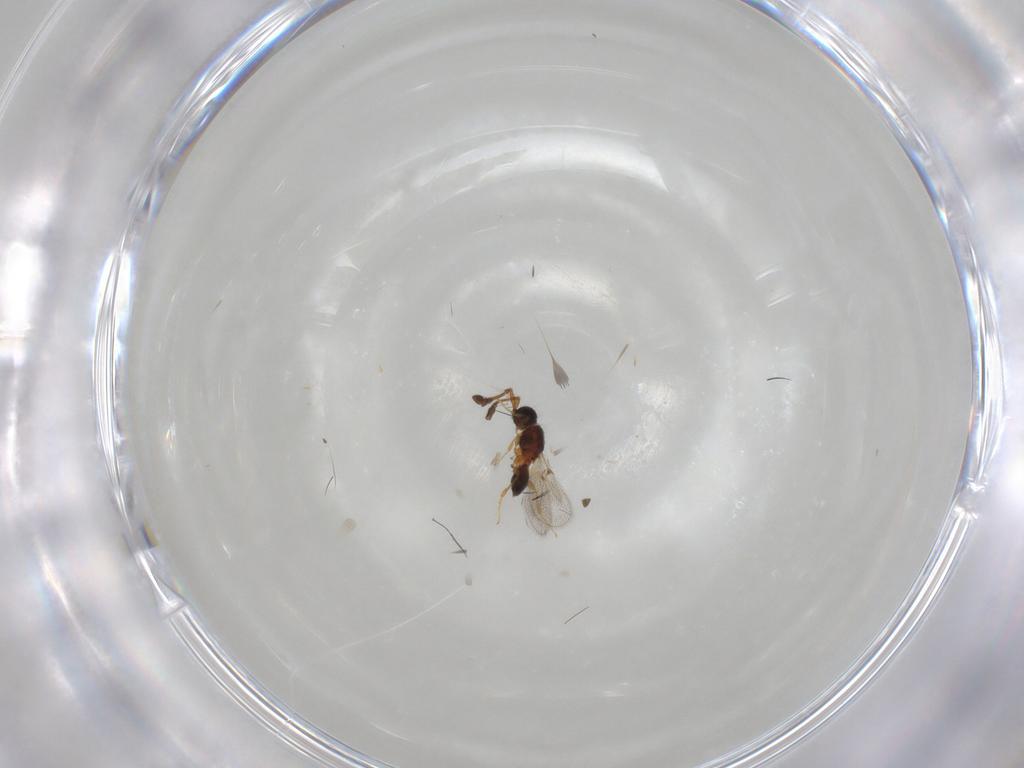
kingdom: Animalia
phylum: Arthropoda
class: Insecta
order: Hymenoptera
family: Diapriidae
